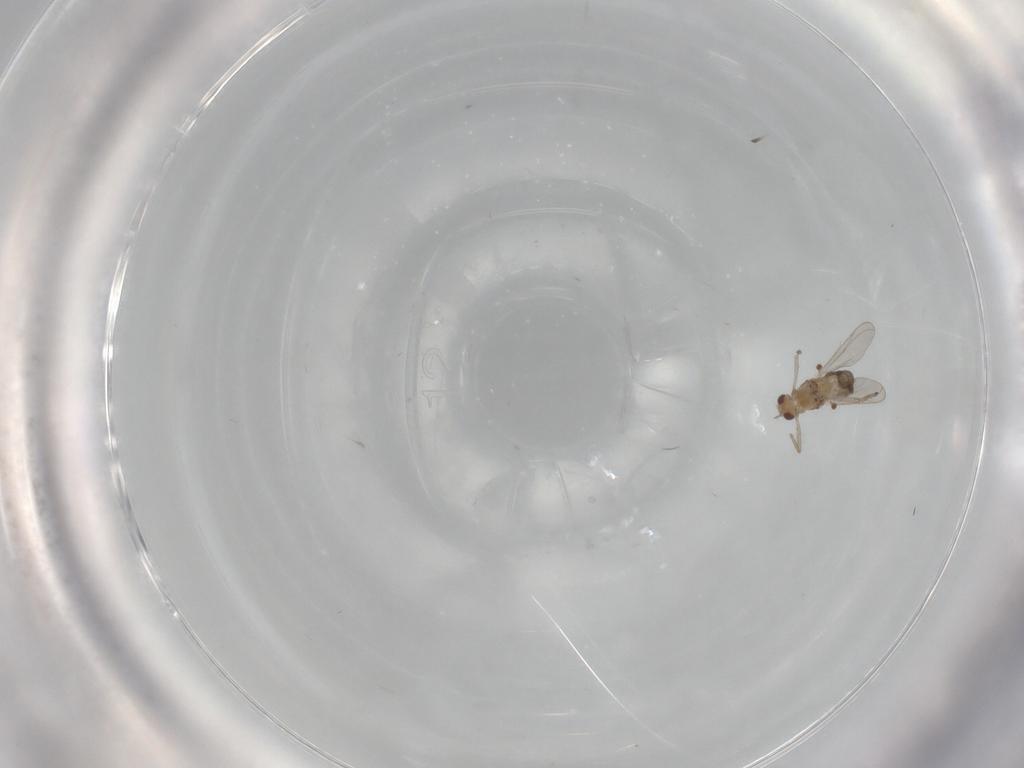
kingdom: Animalia
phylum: Arthropoda
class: Insecta
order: Diptera
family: Chironomidae
